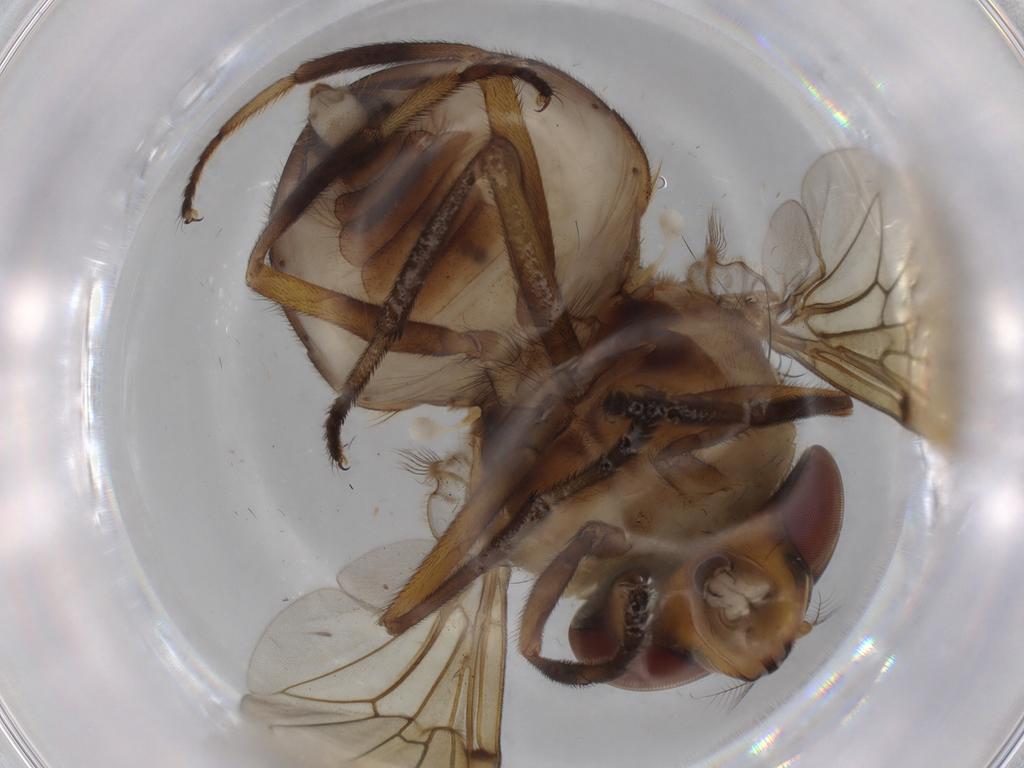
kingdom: Animalia
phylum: Arthropoda
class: Insecta
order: Diptera
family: Syrphidae
